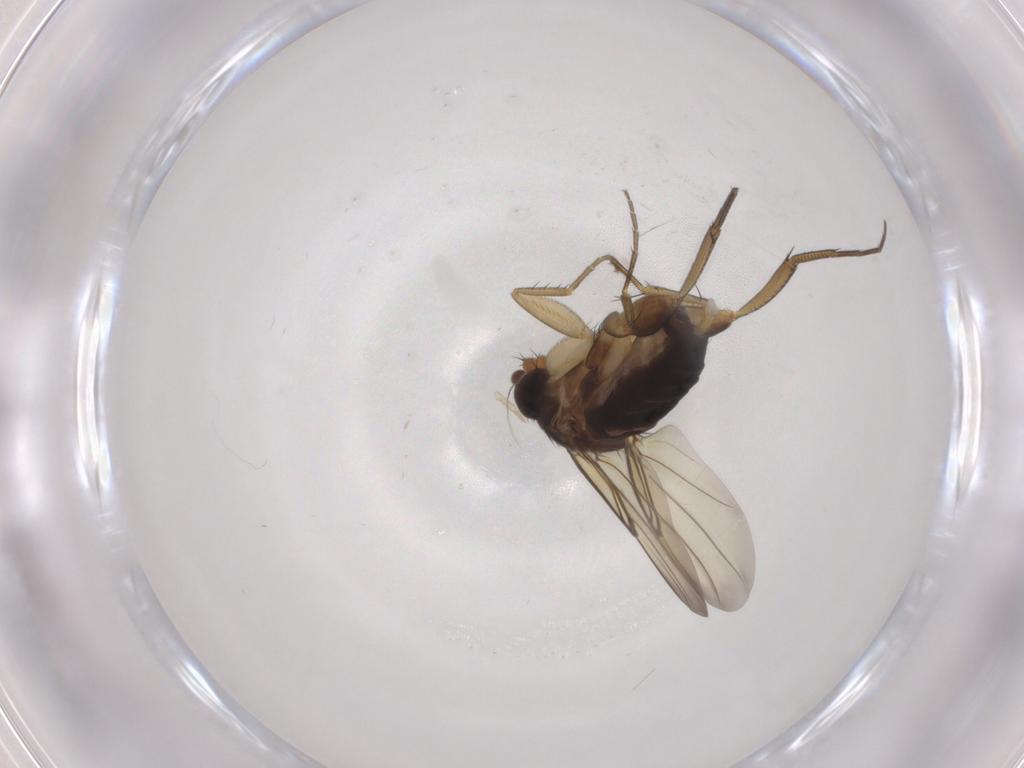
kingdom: Animalia
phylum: Arthropoda
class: Insecta
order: Diptera
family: Phoridae
